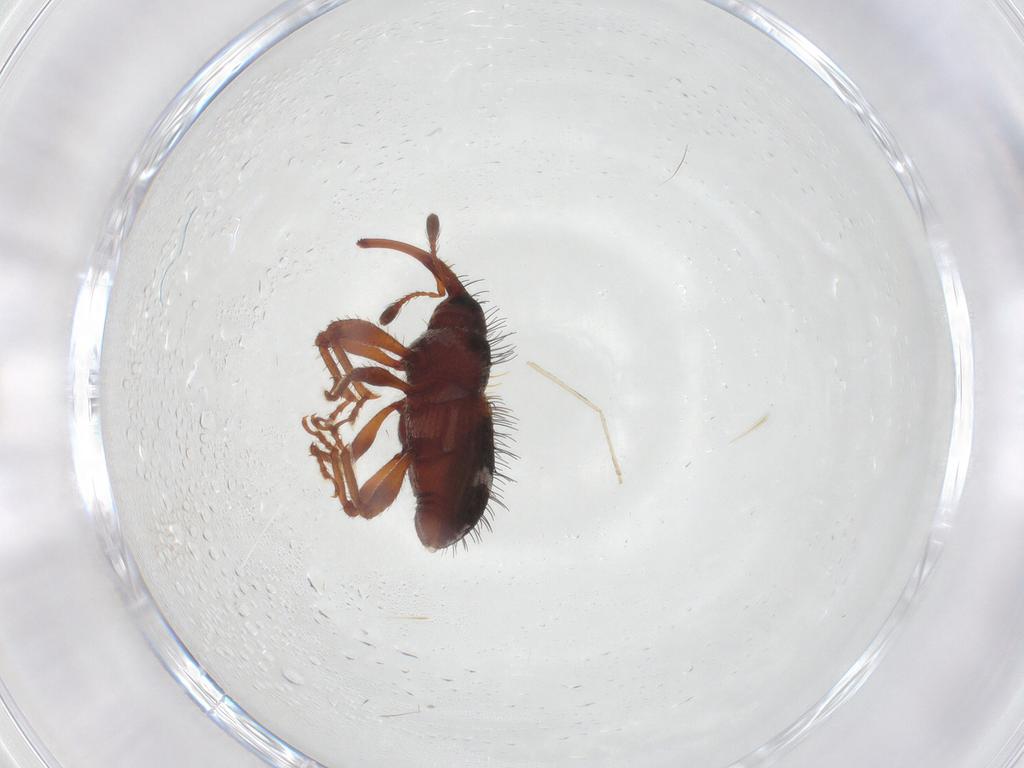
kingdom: Animalia
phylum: Arthropoda
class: Insecta
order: Coleoptera
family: Curculionidae
